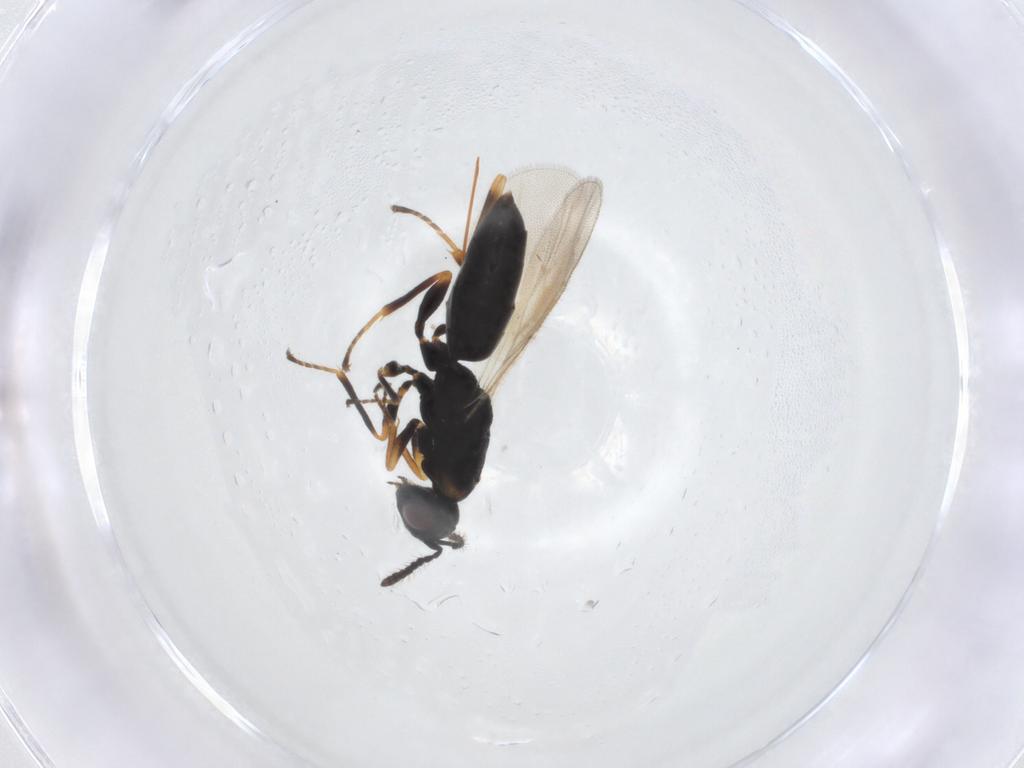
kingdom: Animalia
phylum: Arthropoda
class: Insecta
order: Hymenoptera
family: Eurytomidae
